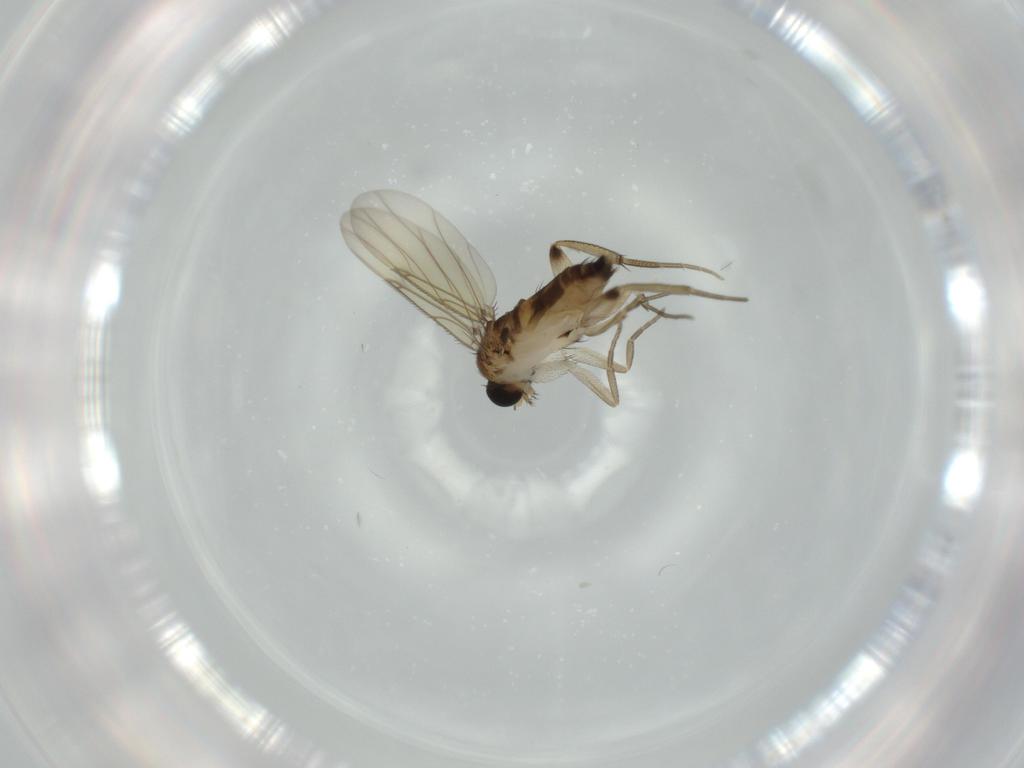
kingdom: Animalia
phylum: Arthropoda
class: Insecta
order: Diptera
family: Phoridae
